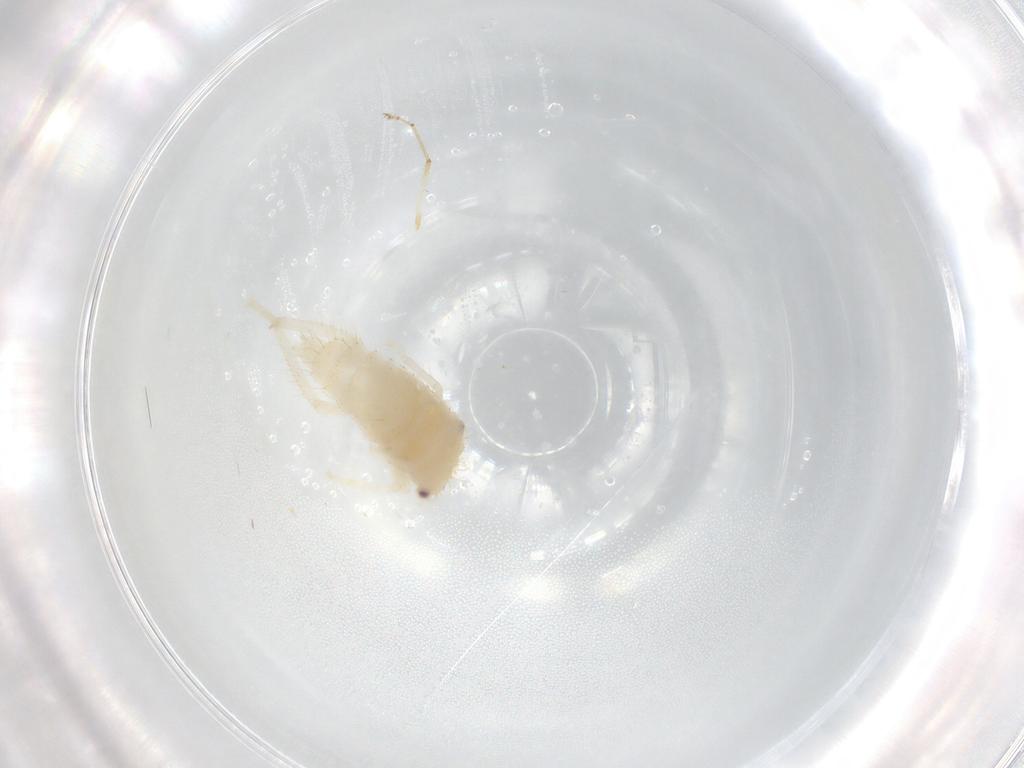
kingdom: Animalia
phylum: Arthropoda
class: Insecta
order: Hemiptera
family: Cicadellidae
